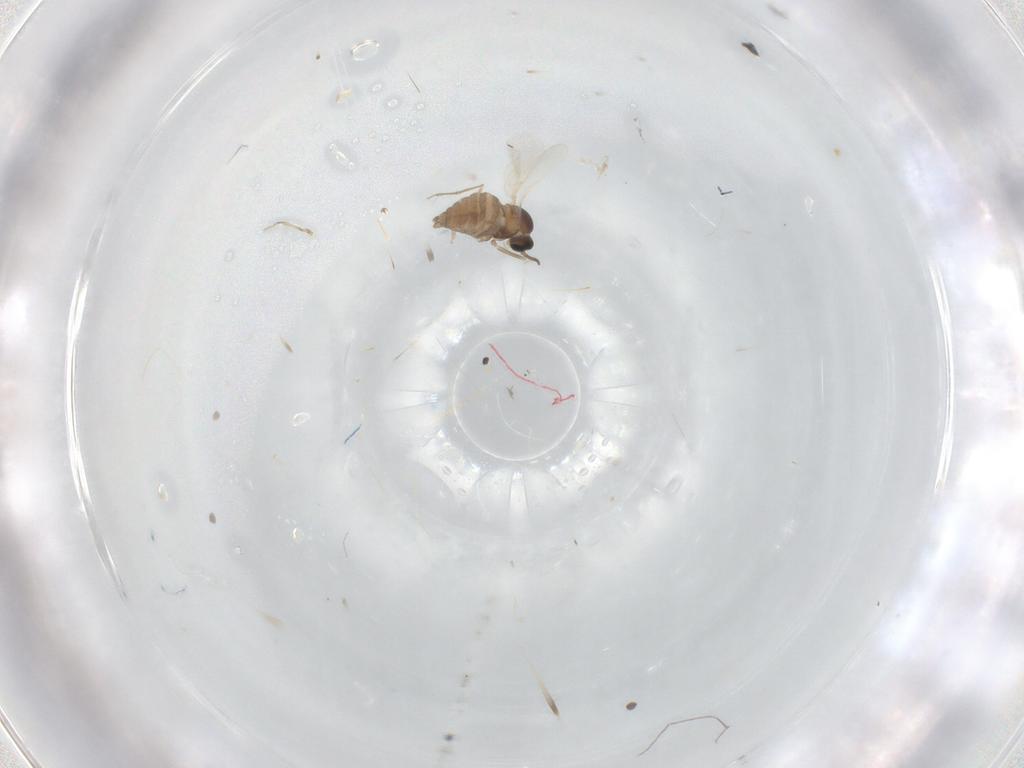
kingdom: Animalia
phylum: Arthropoda
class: Insecta
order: Diptera
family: Cecidomyiidae
